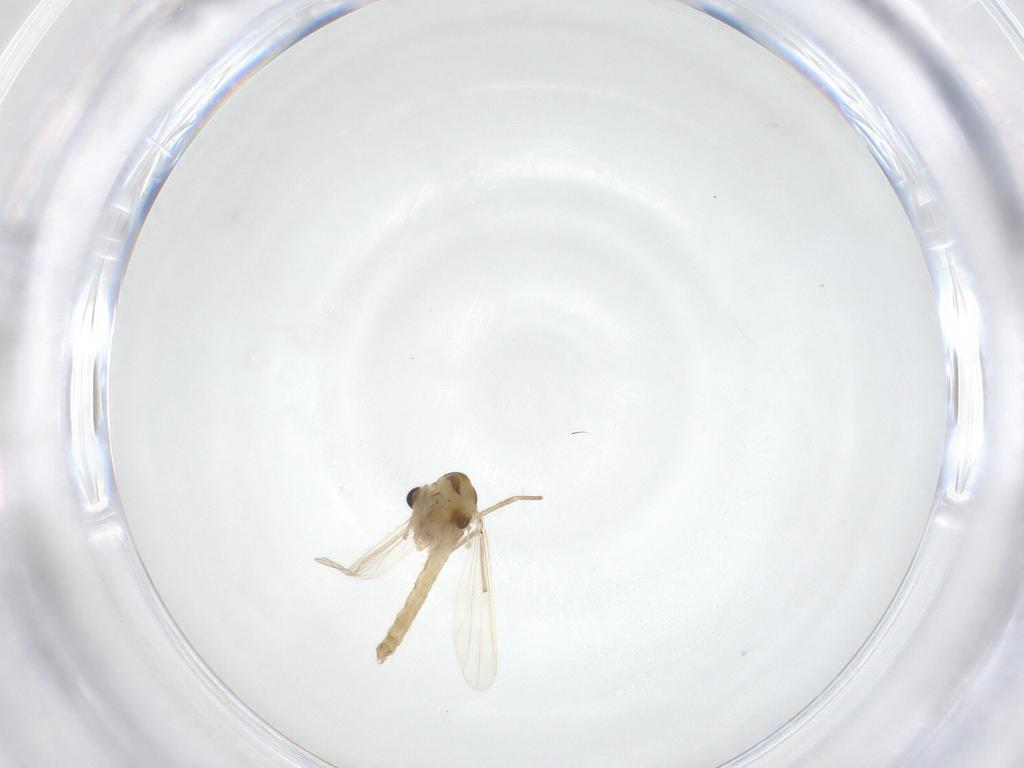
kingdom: Animalia
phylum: Arthropoda
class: Insecta
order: Diptera
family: Chironomidae
